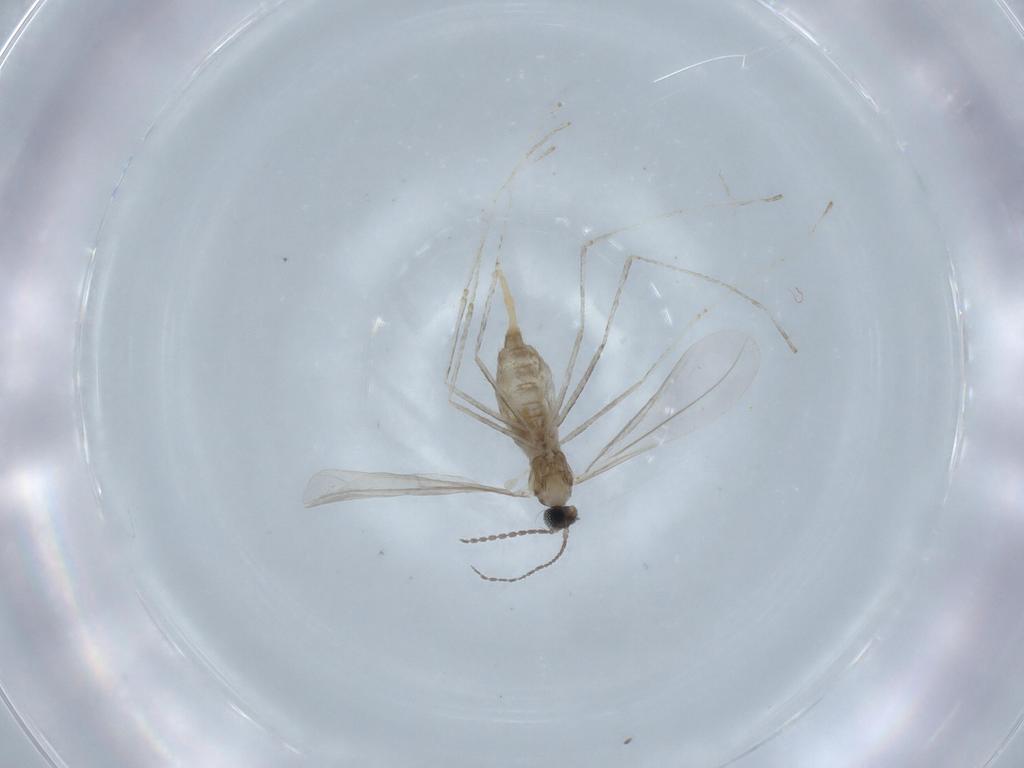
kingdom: Animalia
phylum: Arthropoda
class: Insecta
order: Diptera
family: Cecidomyiidae
